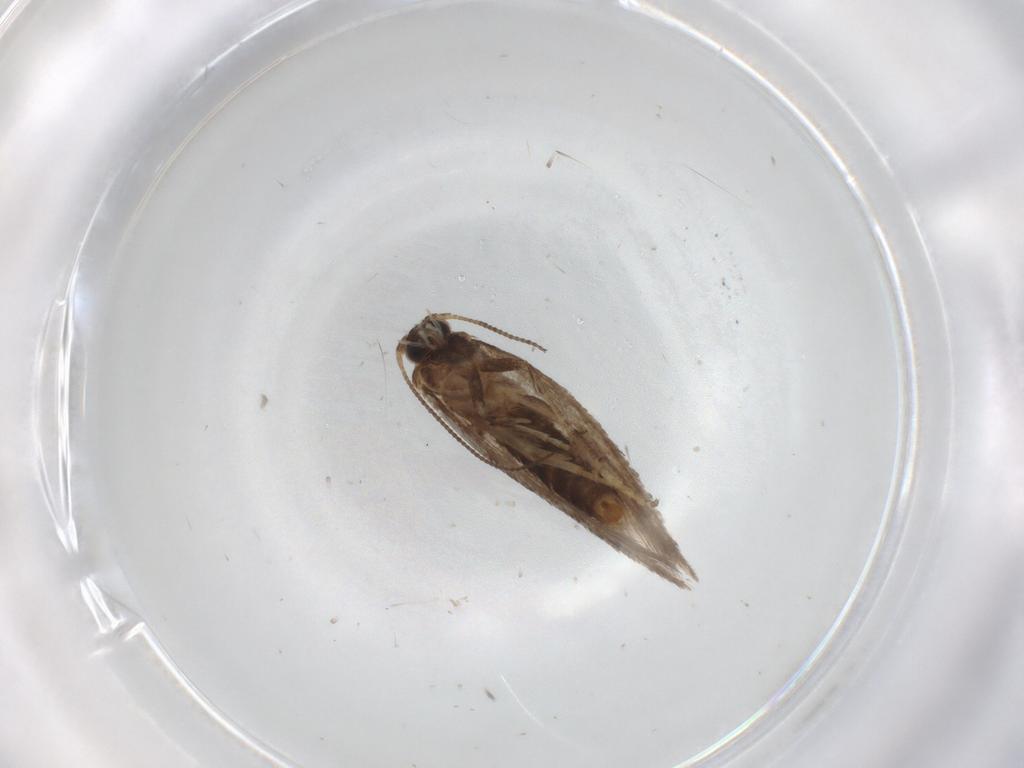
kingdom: Animalia
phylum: Arthropoda
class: Insecta
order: Lepidoptera
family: Nepticulidae
